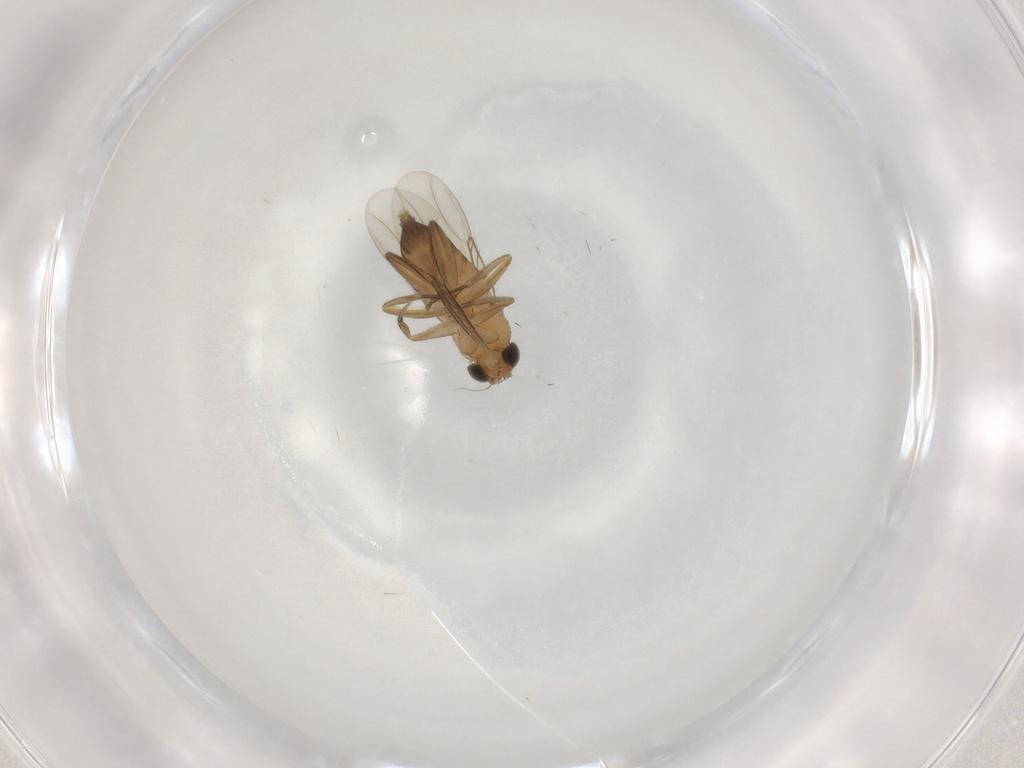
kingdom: Animalia
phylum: Arthropoda
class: Insecta
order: Diptera
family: Phoridae
